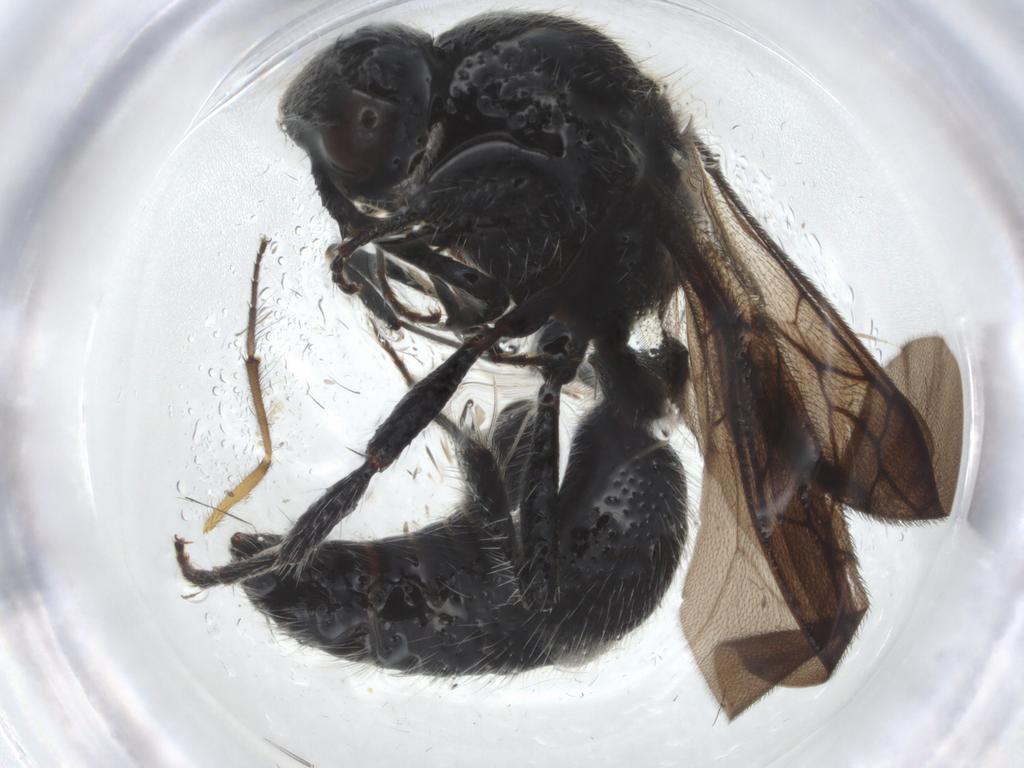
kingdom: Animalia
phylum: Arthropoda
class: Insecta
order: Hymenoptera
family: Mutillidae
